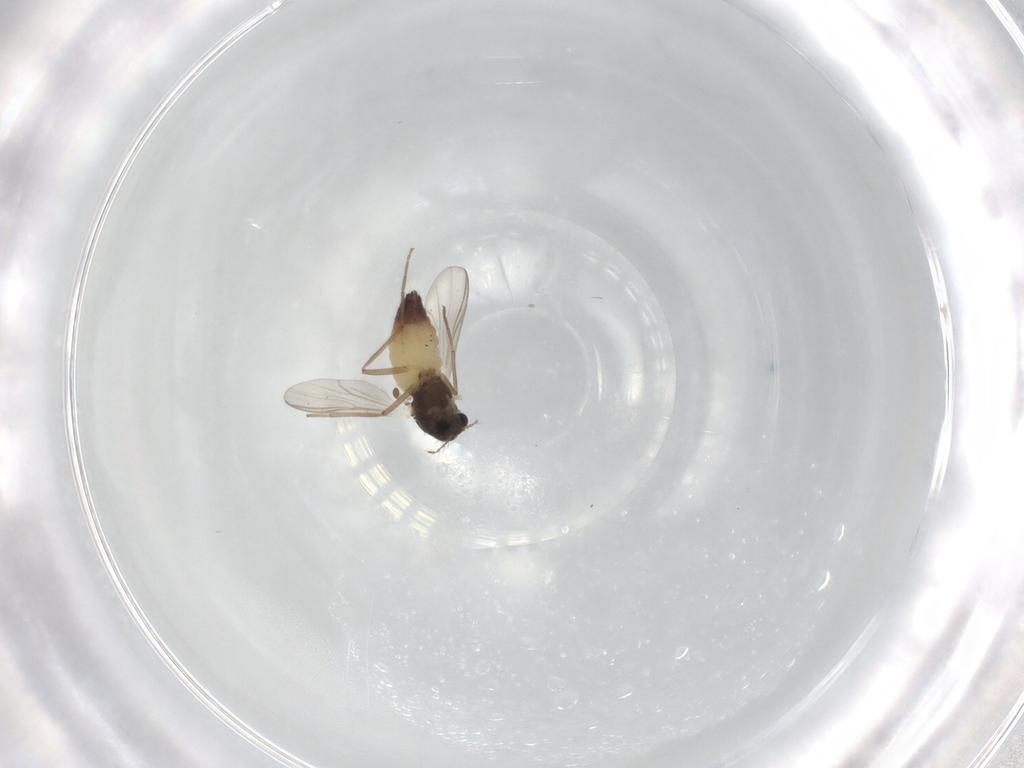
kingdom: Animalia
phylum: Arthropoda
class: Insecta
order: Diptera
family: Chironomidae
